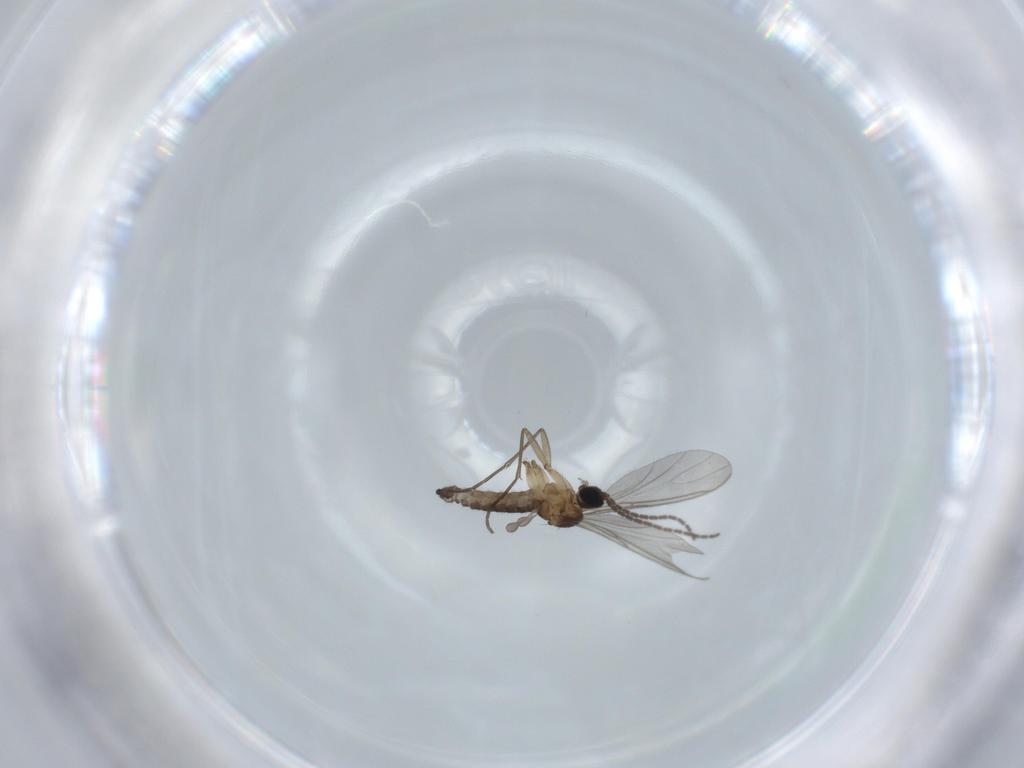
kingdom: Animalia
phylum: Arthropoda
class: Insecta
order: Diptera
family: Sciaridae
